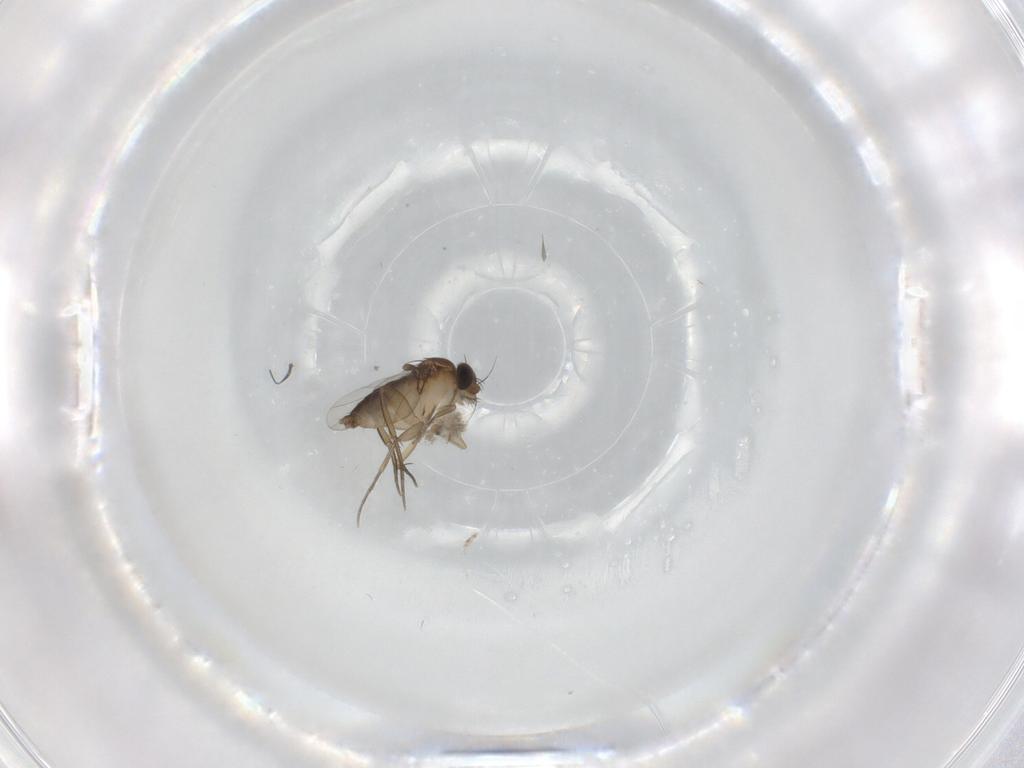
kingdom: Animalia
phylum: Arthropoda
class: Insecta
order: Diptera
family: Phoridae
